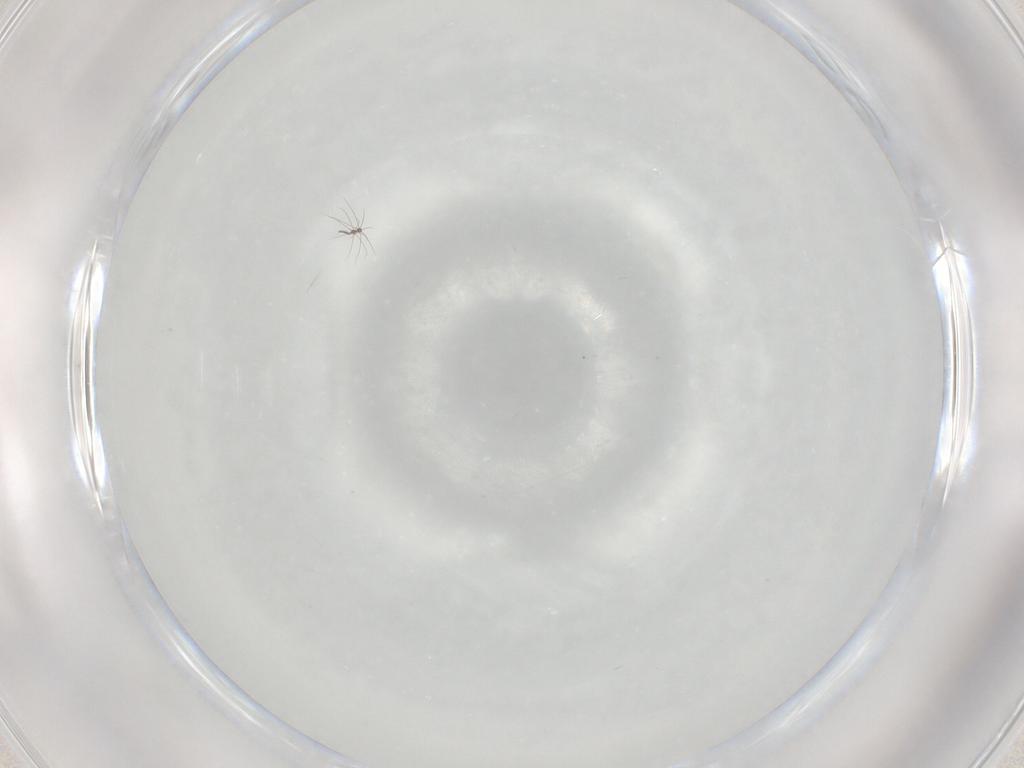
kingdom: Animalia
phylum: Arthropoda
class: Insecta
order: Diptera
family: Chironomidae
